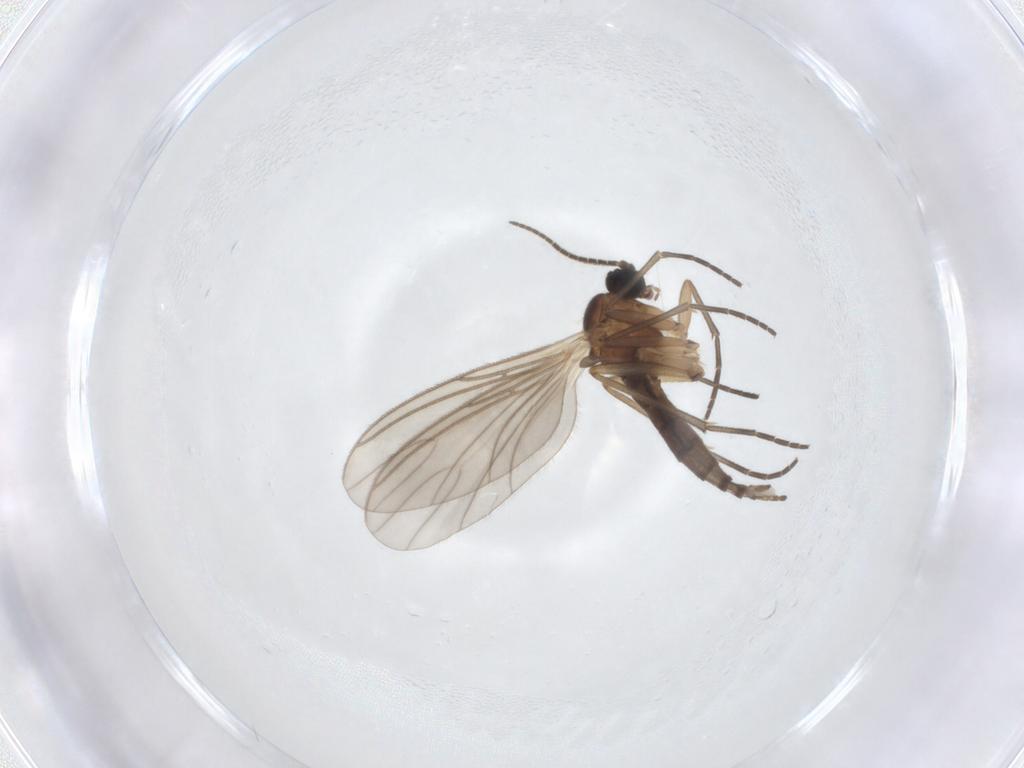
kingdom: Animalia
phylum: Arthropoda
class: Insecta
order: Diptera
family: Sciaridae
